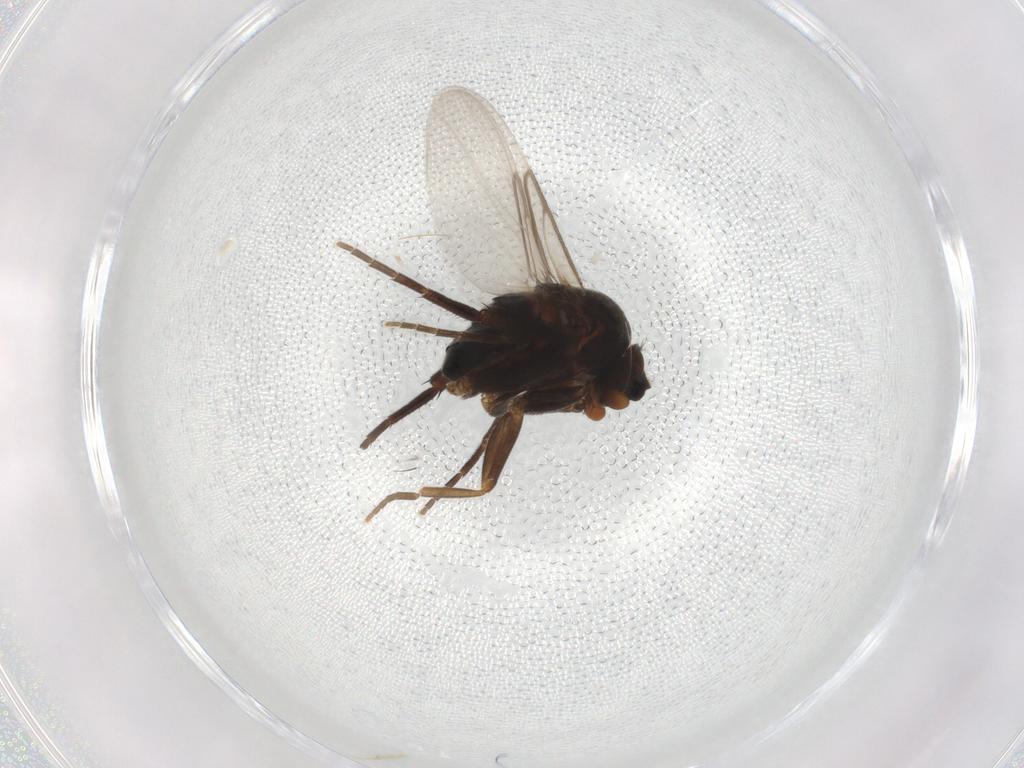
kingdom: Animalia
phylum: Arthropoda
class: Insecta
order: Diptera
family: Phoridae
